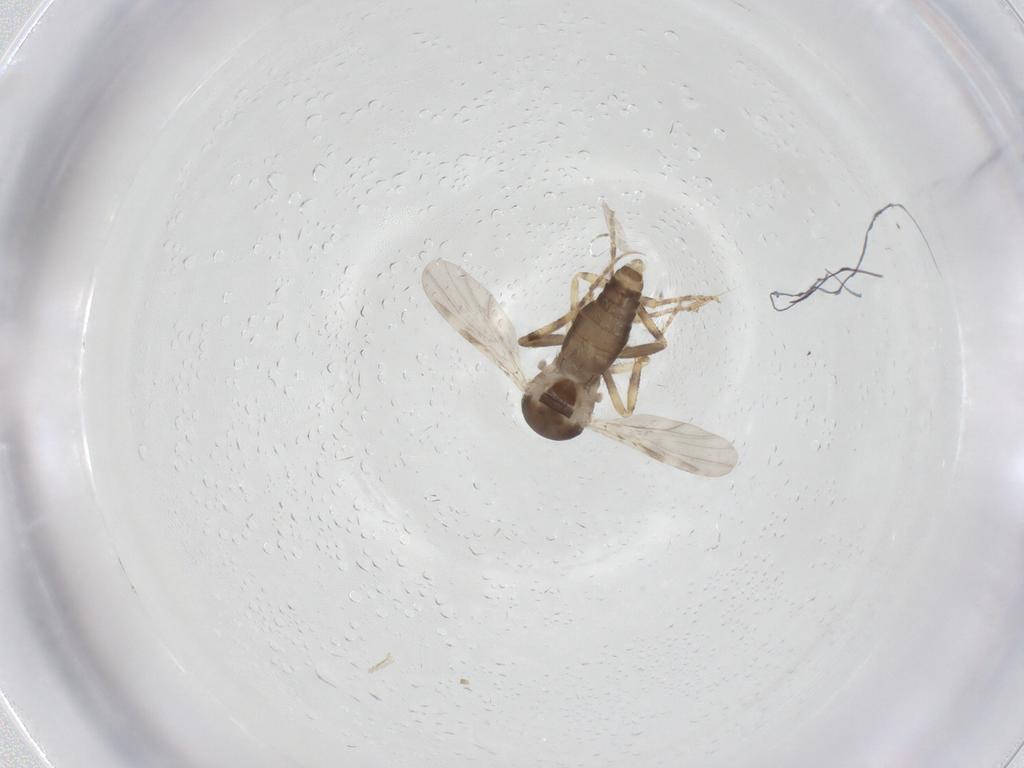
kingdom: Animalia
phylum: Arthropoda
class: Insecta
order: Diptera
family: Ceratopogonidae
